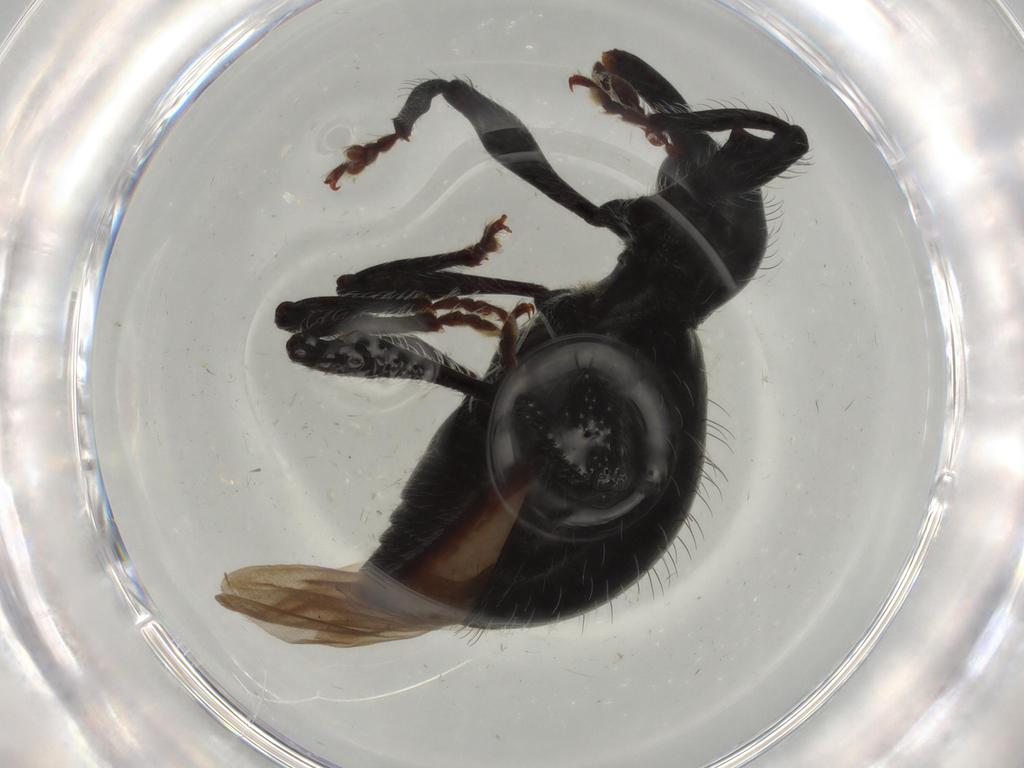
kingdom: Animalia
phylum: Arthropoda
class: Insecta
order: Coleoptera
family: Curculionidae
